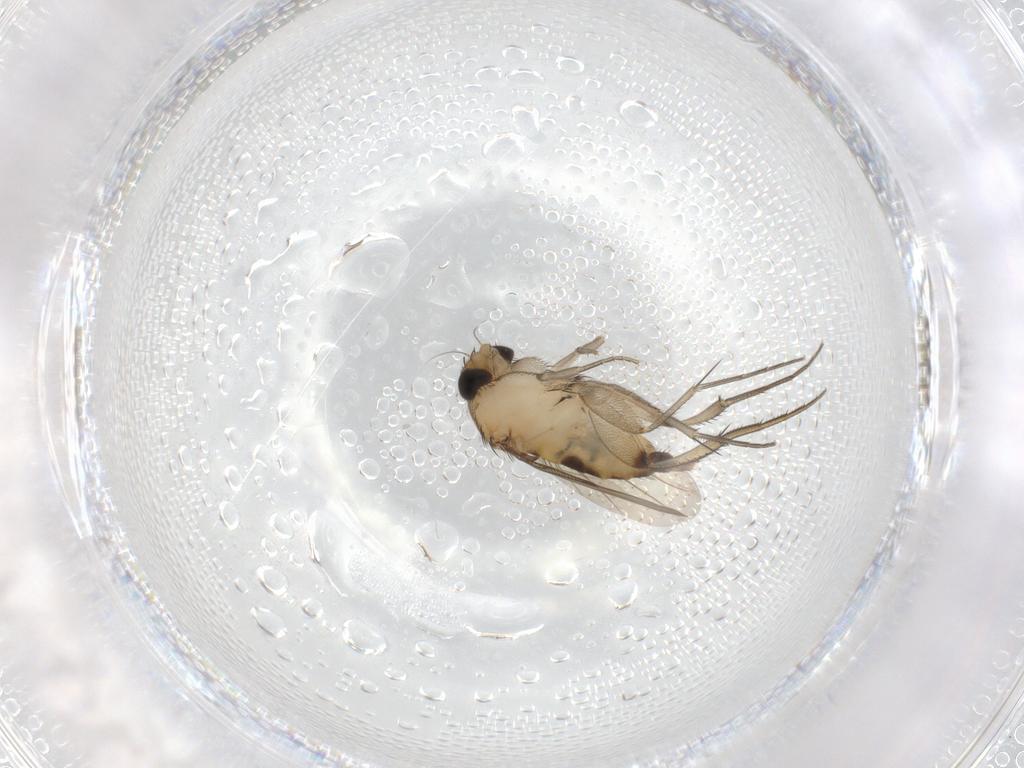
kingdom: Animalia
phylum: Arthropoda
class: Insecta
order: Diptera
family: Phoridae
